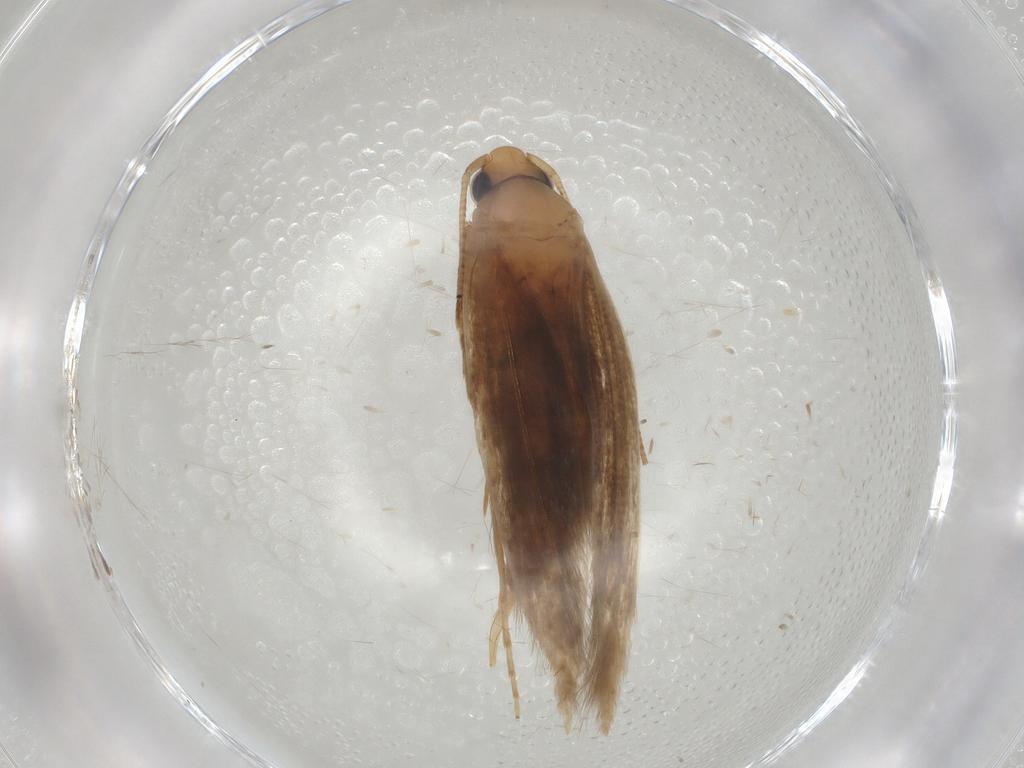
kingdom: Animalia
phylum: Arthropoda
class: Insecta
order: Lepidoptera
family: Tineidae
